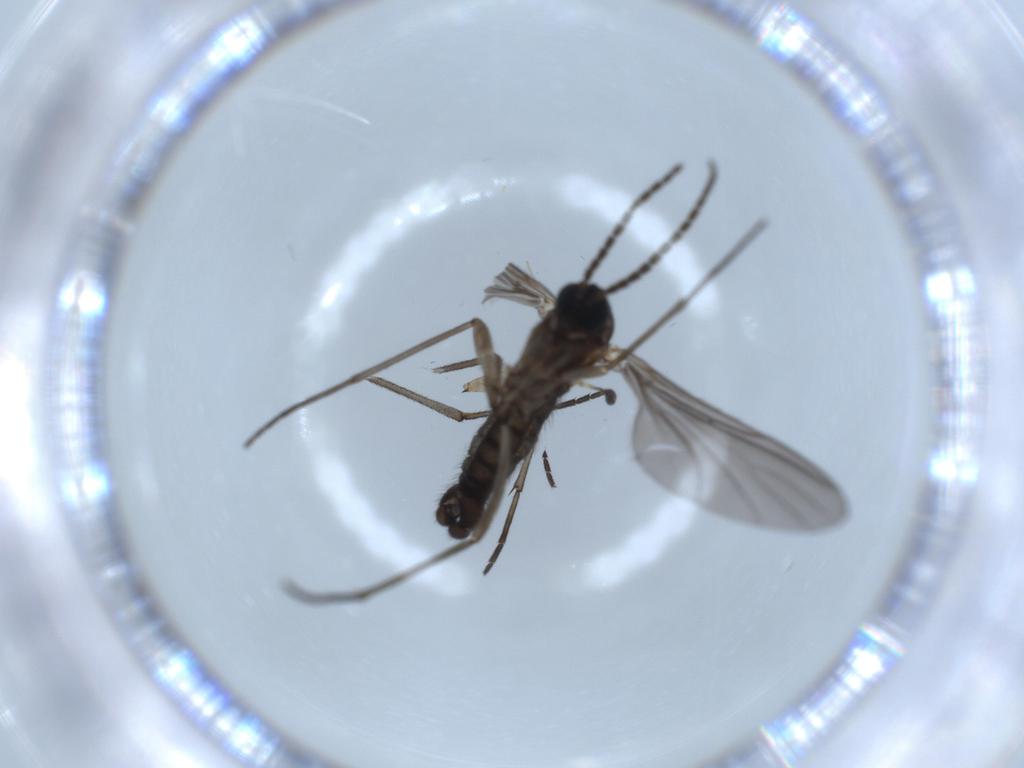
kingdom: Animalia
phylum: Arthropoda
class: Insecta
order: Diptera
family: Sciaridae
